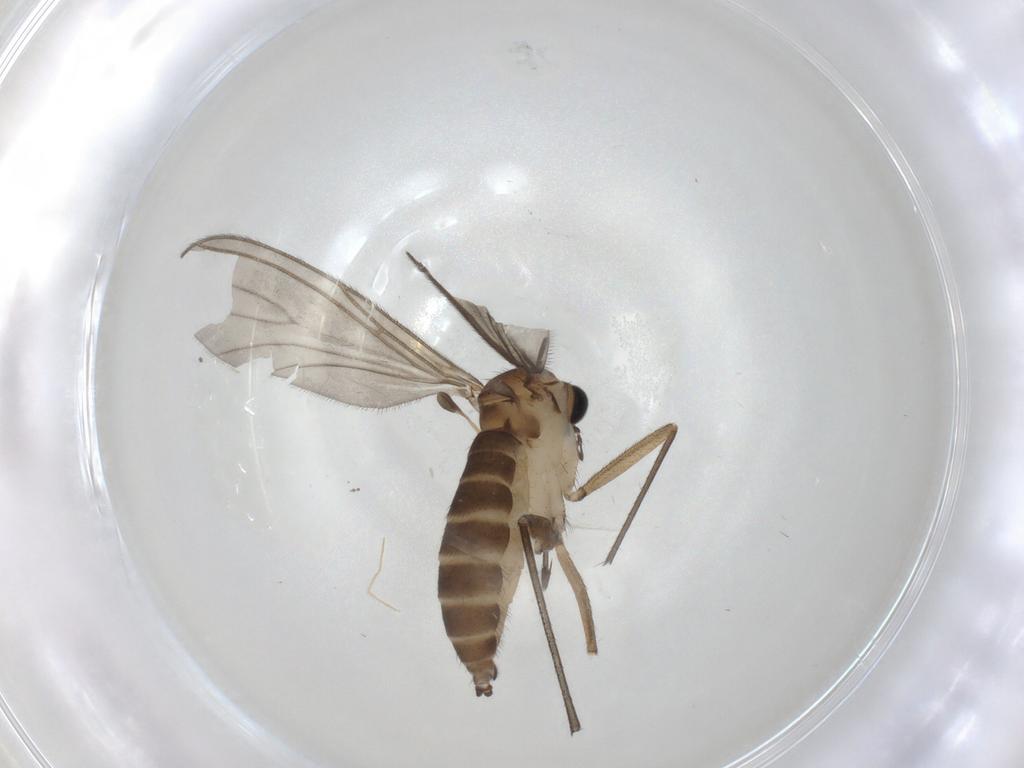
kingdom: Animalia
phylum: Arthropoda
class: Insecta
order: Diptera
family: Sciaridae
